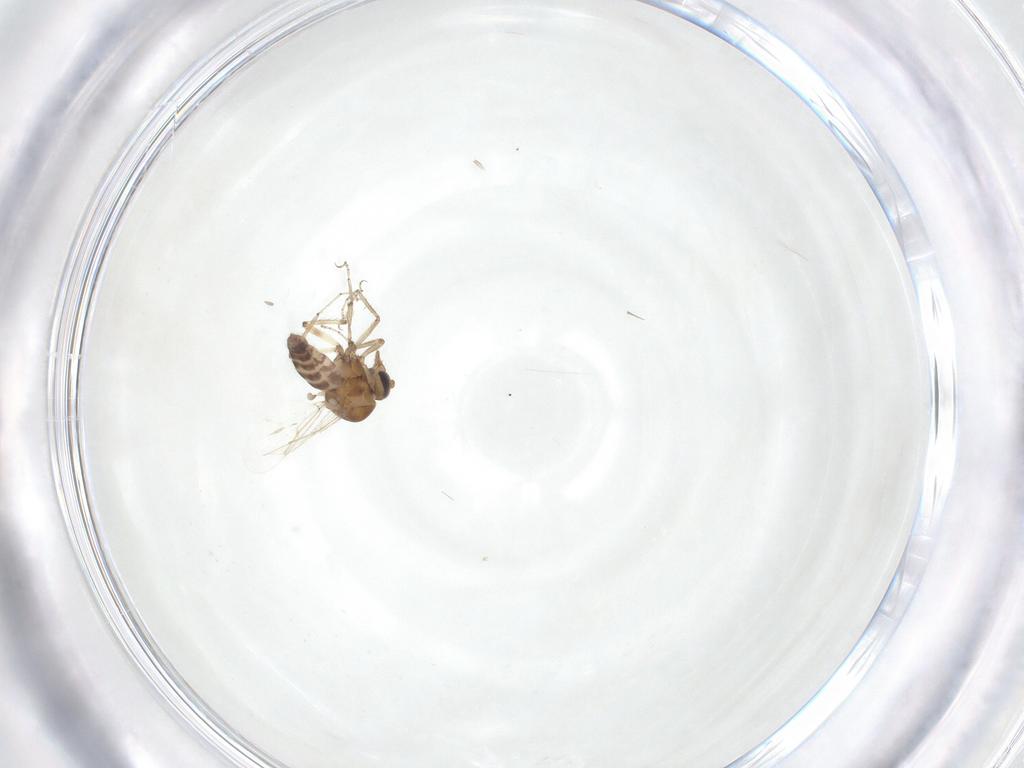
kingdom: Animalia
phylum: Arthropoda
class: Insecta
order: Diptera
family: Ceratopogonidae
